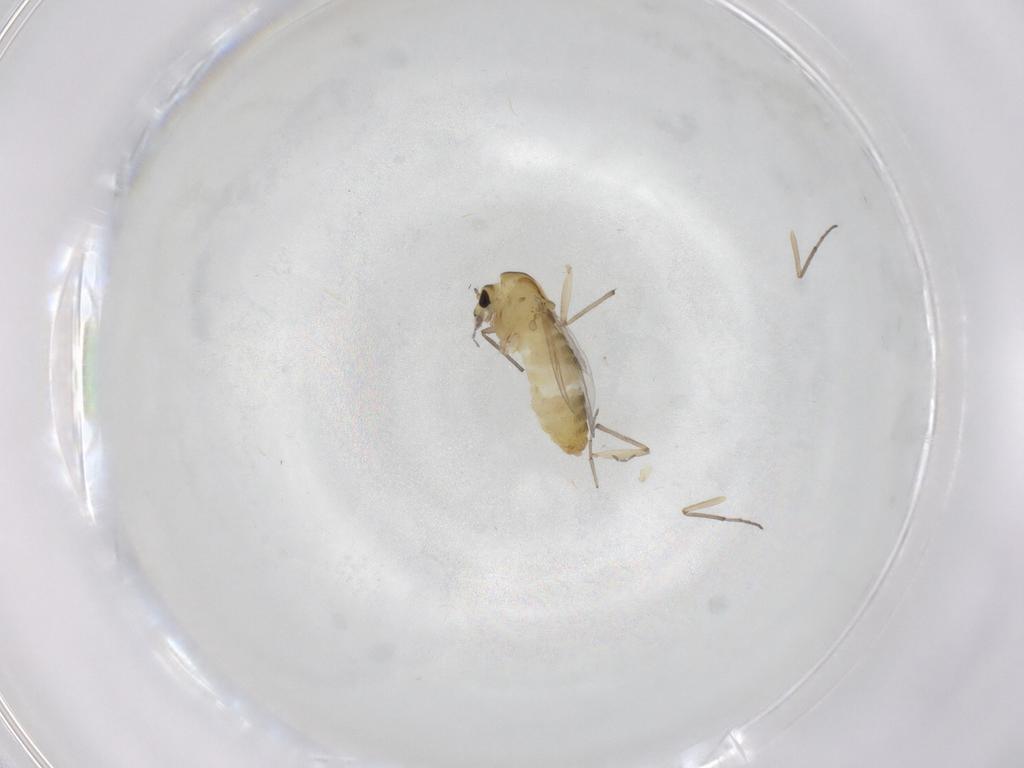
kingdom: Animalia
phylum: Arthropoda
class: Insecta
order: Diptera
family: Chironomidae
